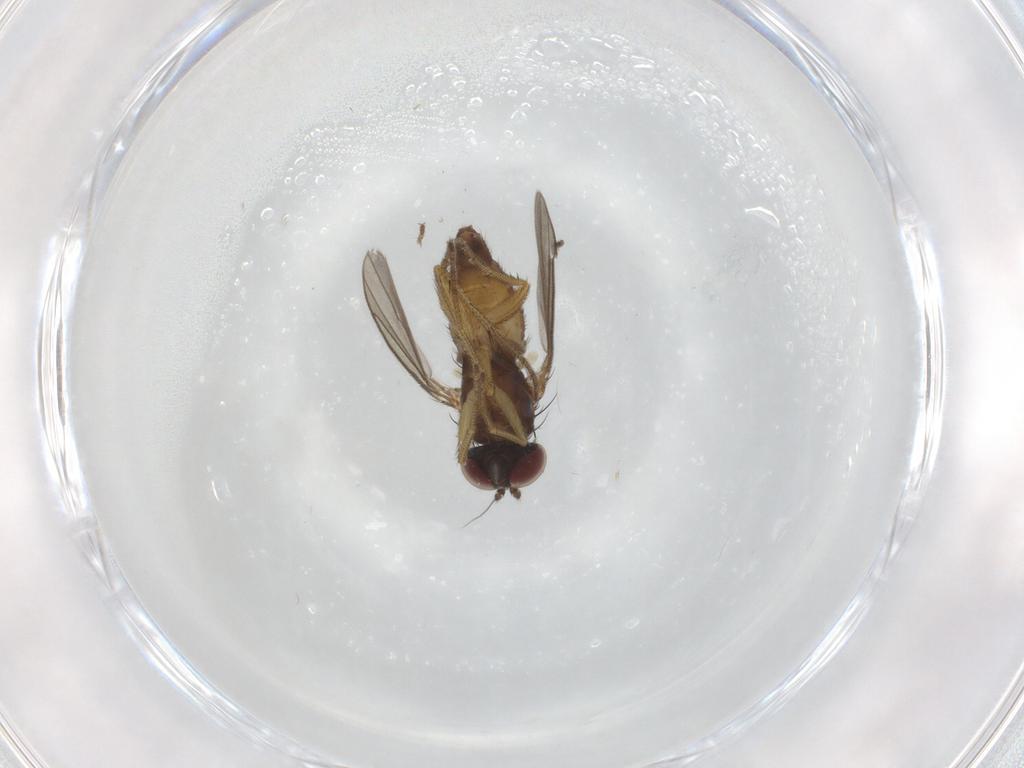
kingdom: Animalia
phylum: Arthropoda
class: Insecta
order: Diptera
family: Dolichopodidae
